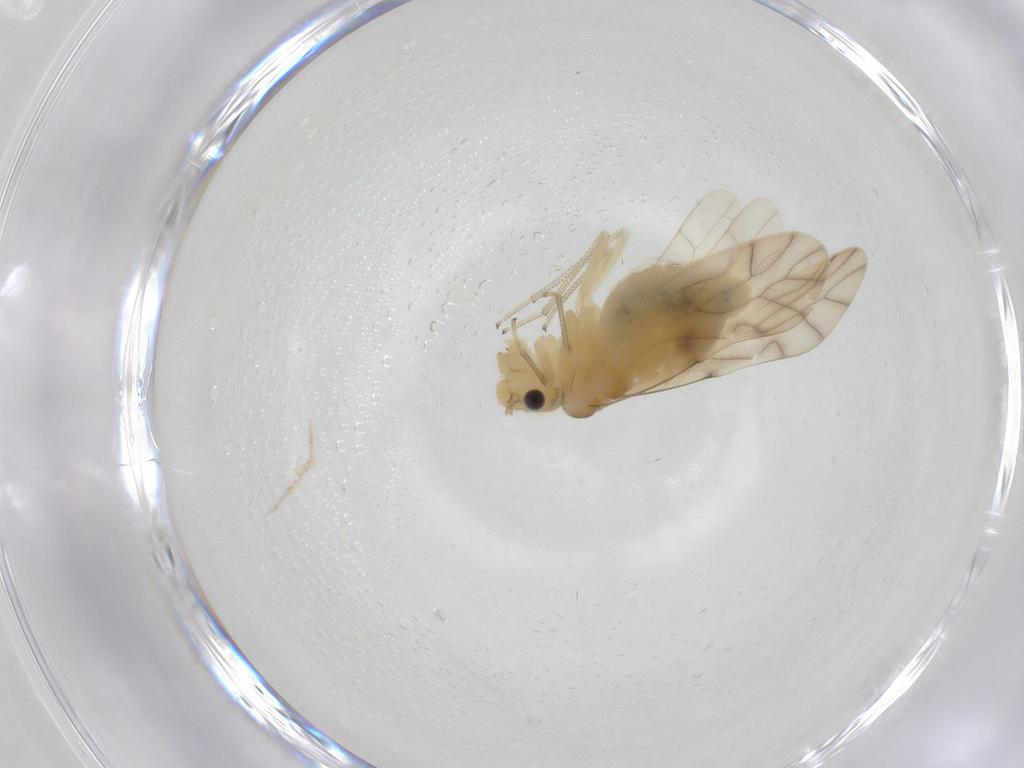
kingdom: Animalia
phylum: Arthropoda
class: Insecta
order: Psocodea
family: Caeciliusidae
